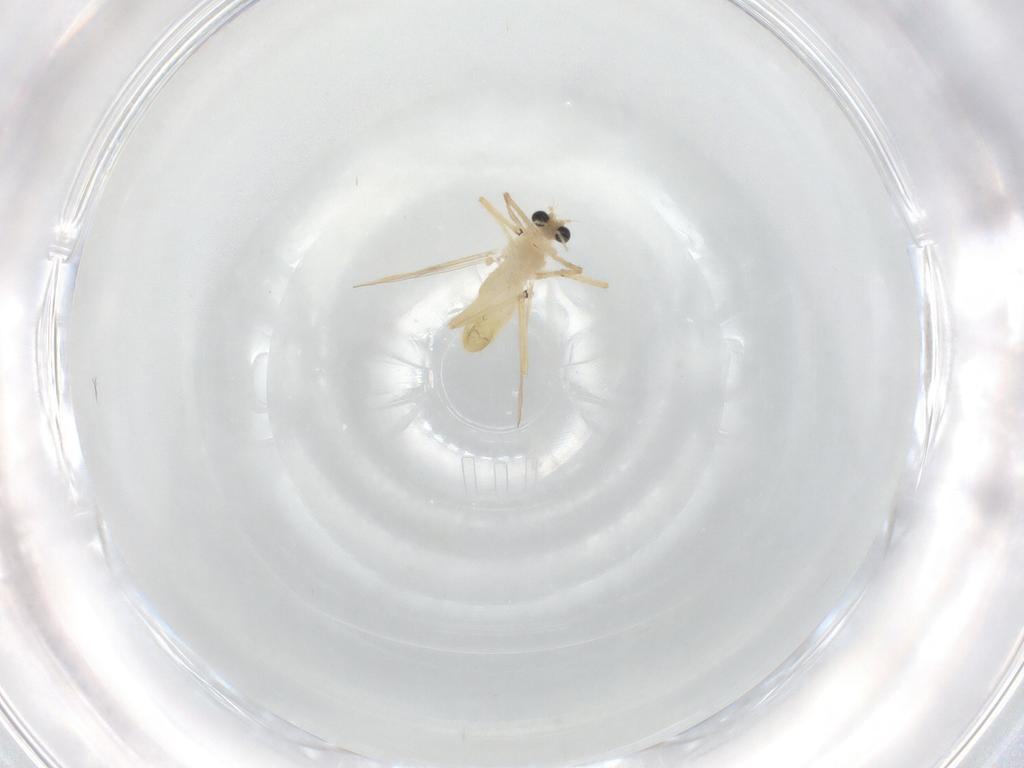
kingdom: Animalia
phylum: Arthropoda
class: Insecta
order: Diptera
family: Chironomidae
